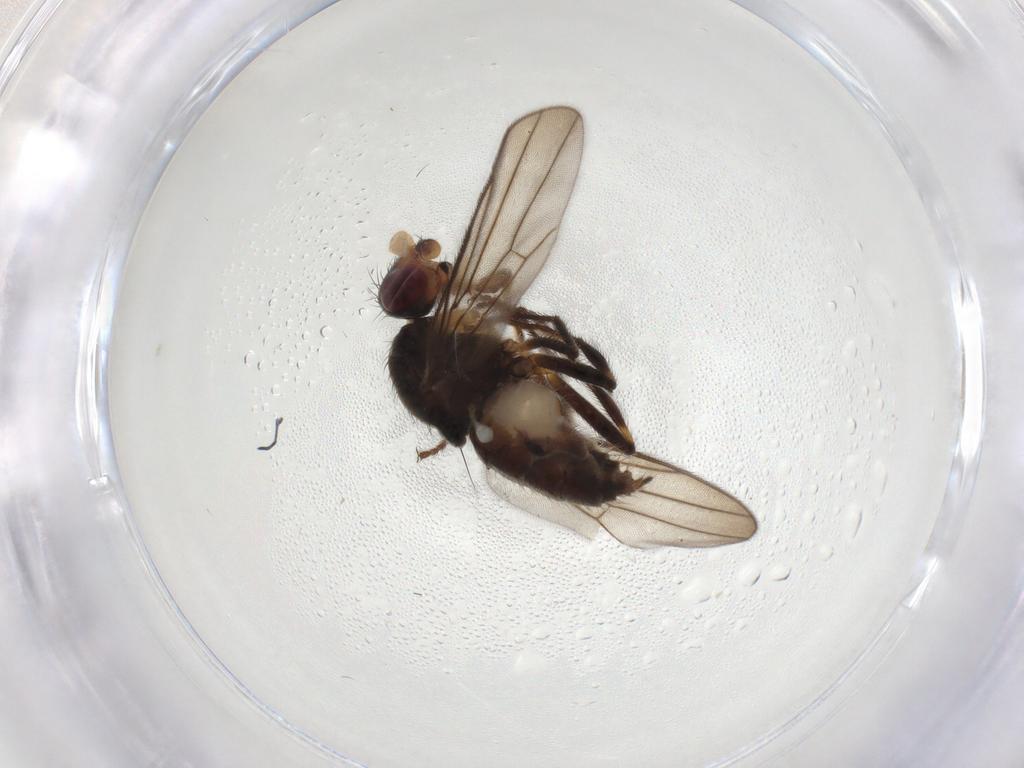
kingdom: Animalia
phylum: Arthropoda
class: Insecta
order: Diptera
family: Chloropidae
